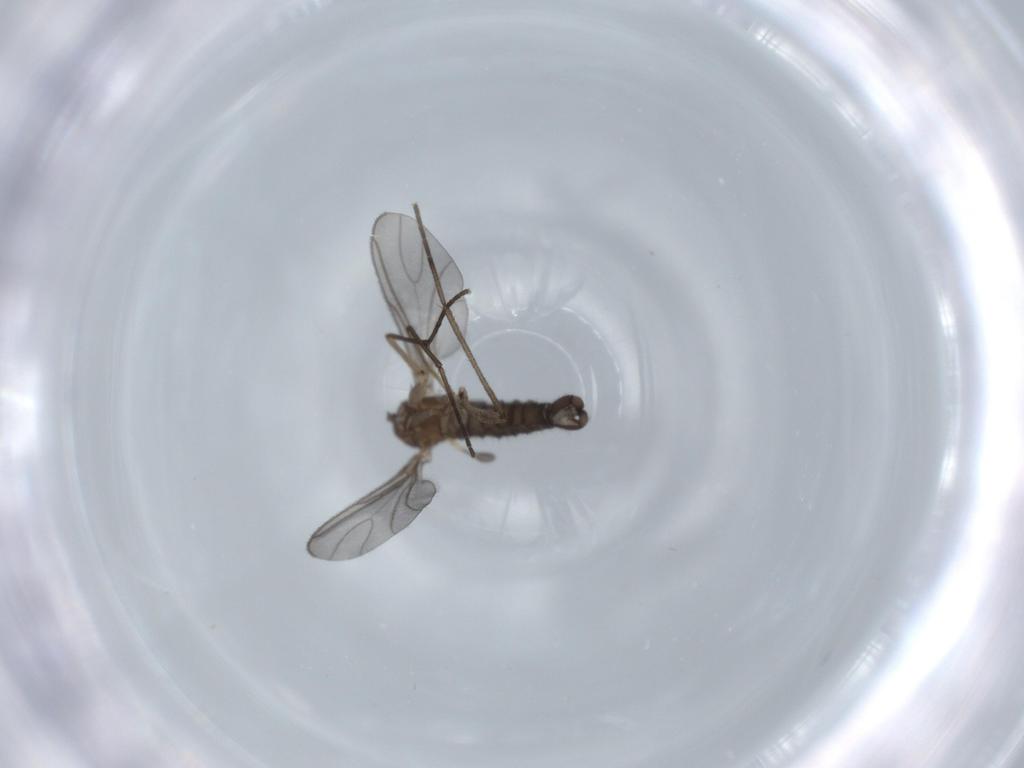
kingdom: Animalia
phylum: Arthropoda
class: Insecta
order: Diptera
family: Sciaridae
